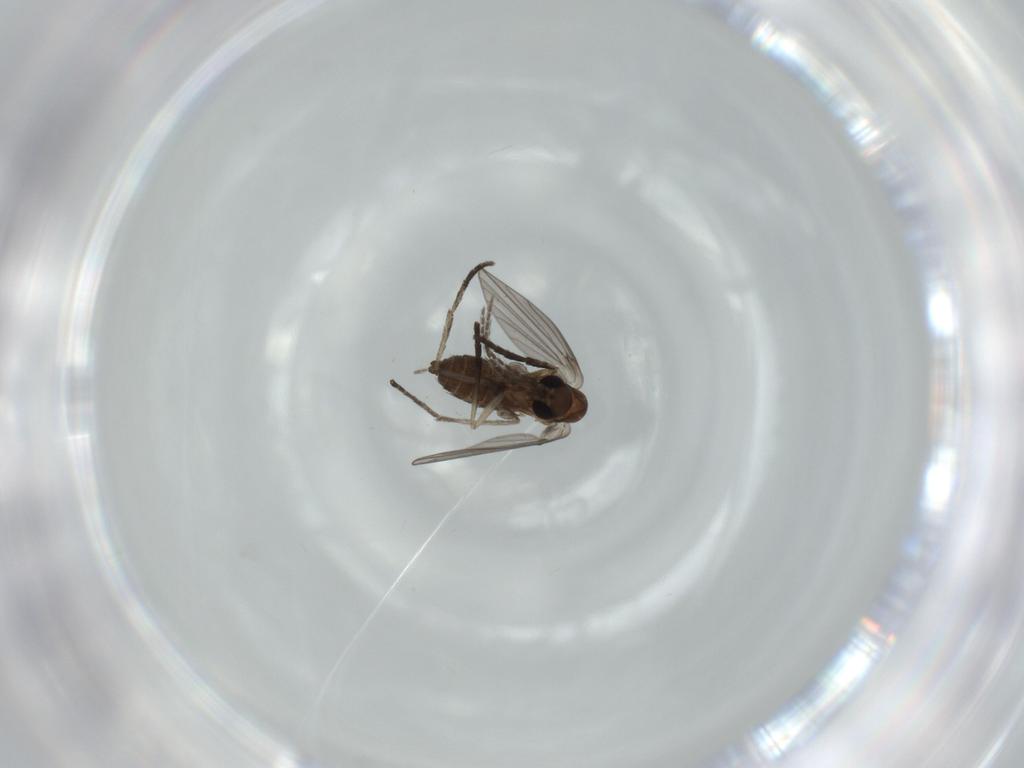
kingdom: Animalia
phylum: Arthropoda
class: Insecta
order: Diptera
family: Psychodidae
